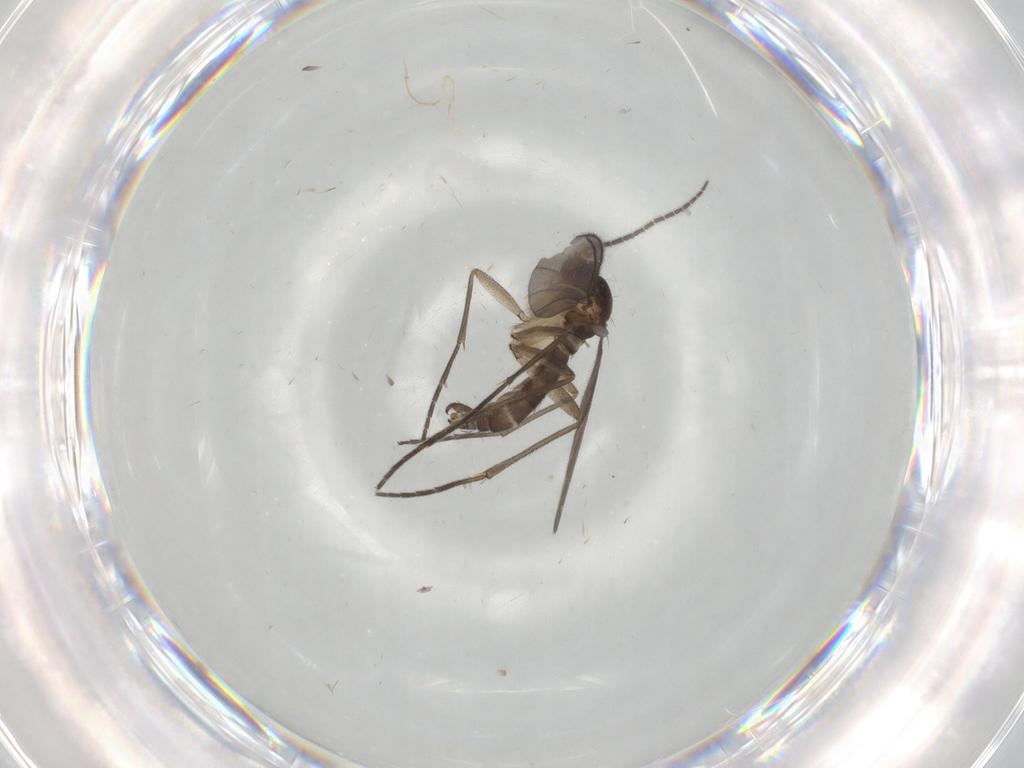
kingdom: Animalia
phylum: Arthropoda
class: Insecta
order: Diptera
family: Sciaridae
